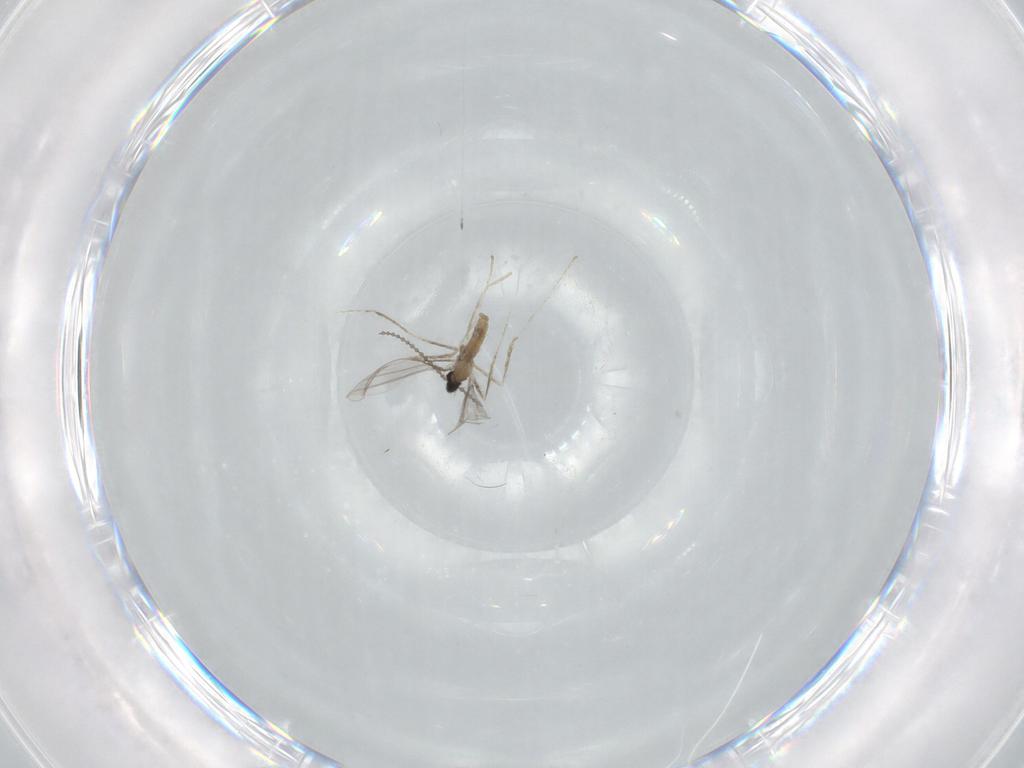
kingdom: Animalia
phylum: Arthropoda
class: Insecta
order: Diptera
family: Cecidomyiidae
